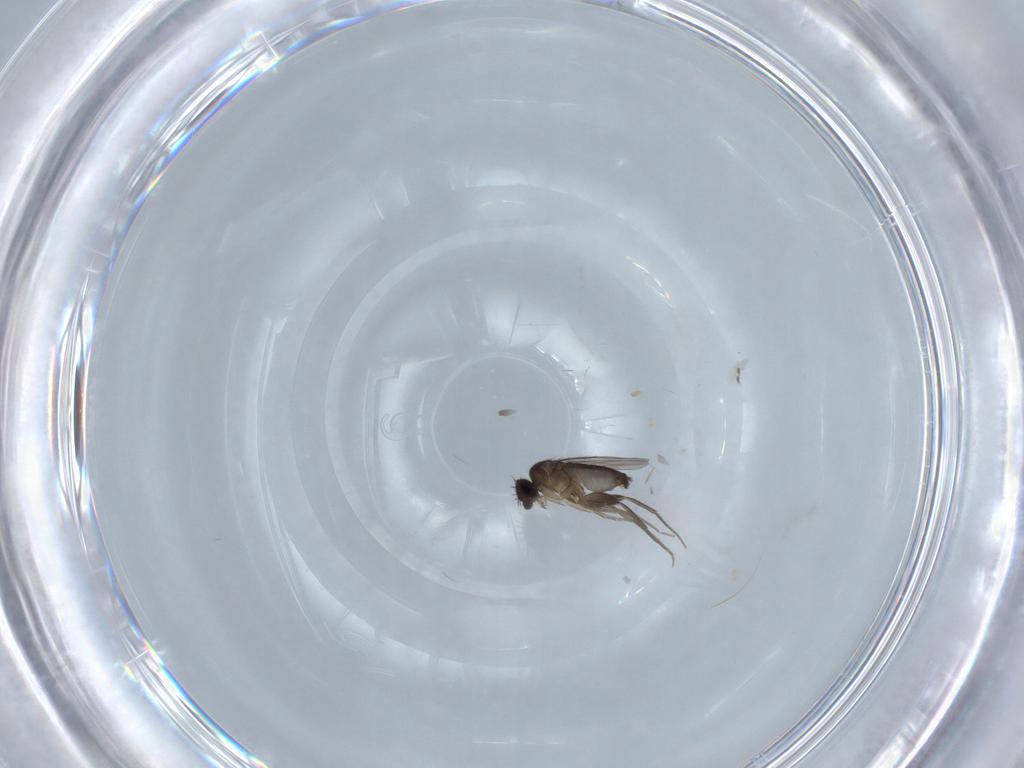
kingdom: Animalia
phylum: Arthropoda
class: Insecta
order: Diptera
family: Phoridae
